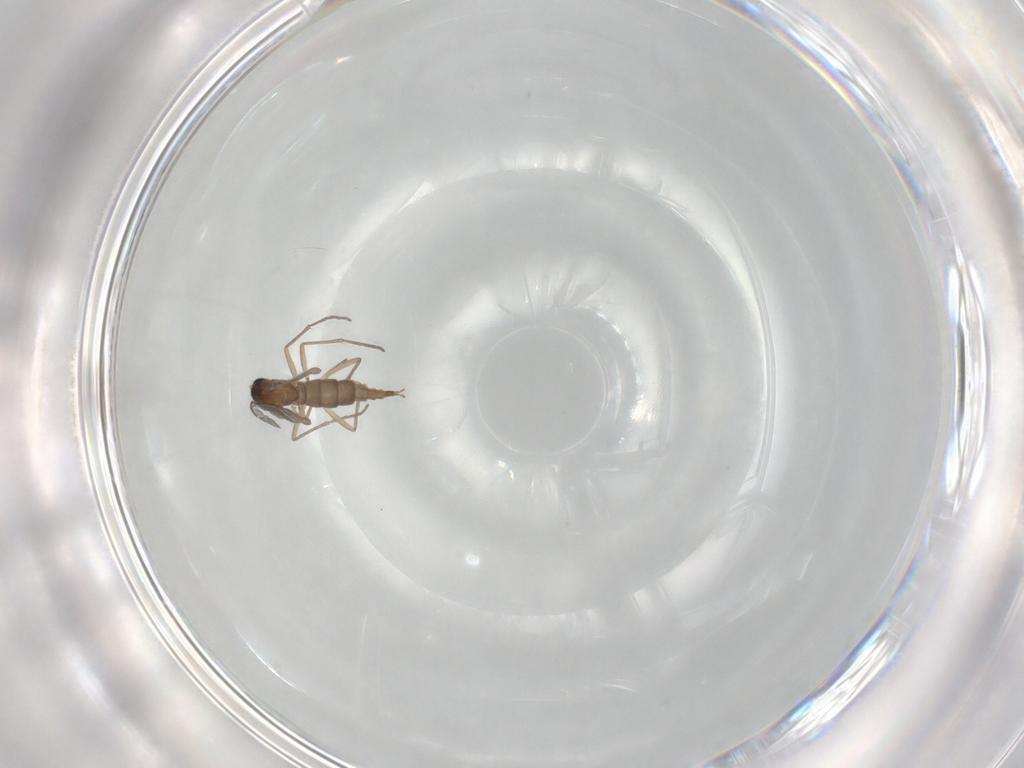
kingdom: Animalia
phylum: Arthropoda
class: Insecta
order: Diptera
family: Sciaridae
